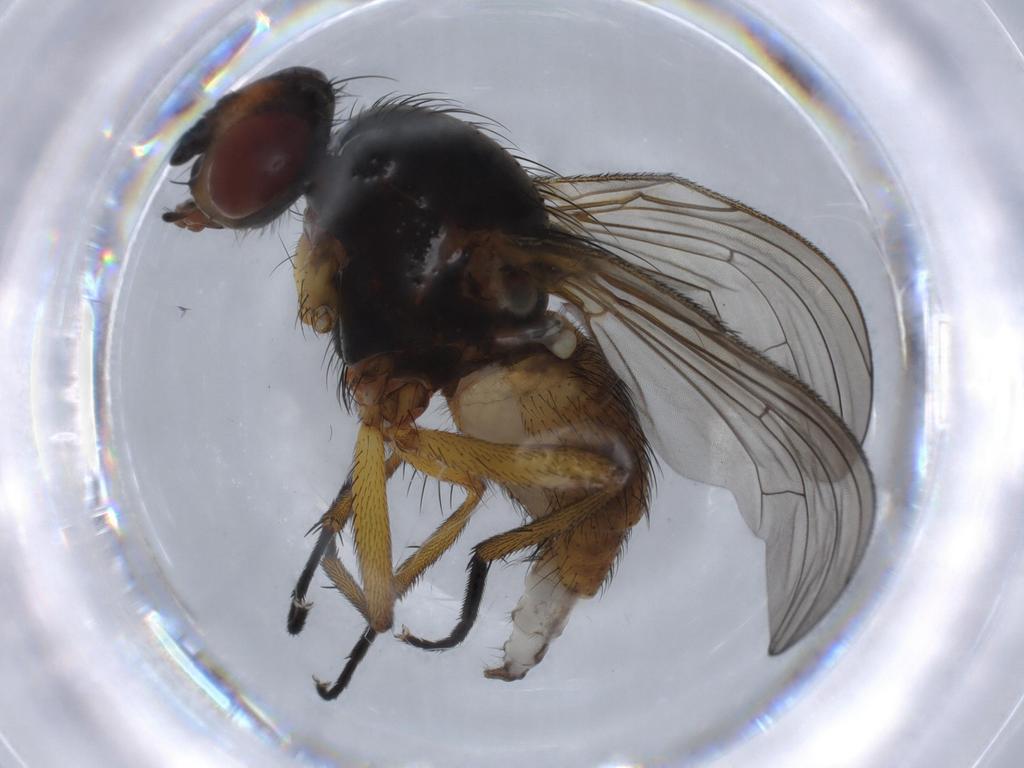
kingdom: Animalia
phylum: Arthropoda
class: Insecta
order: Diptera
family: Anthomyiidae
